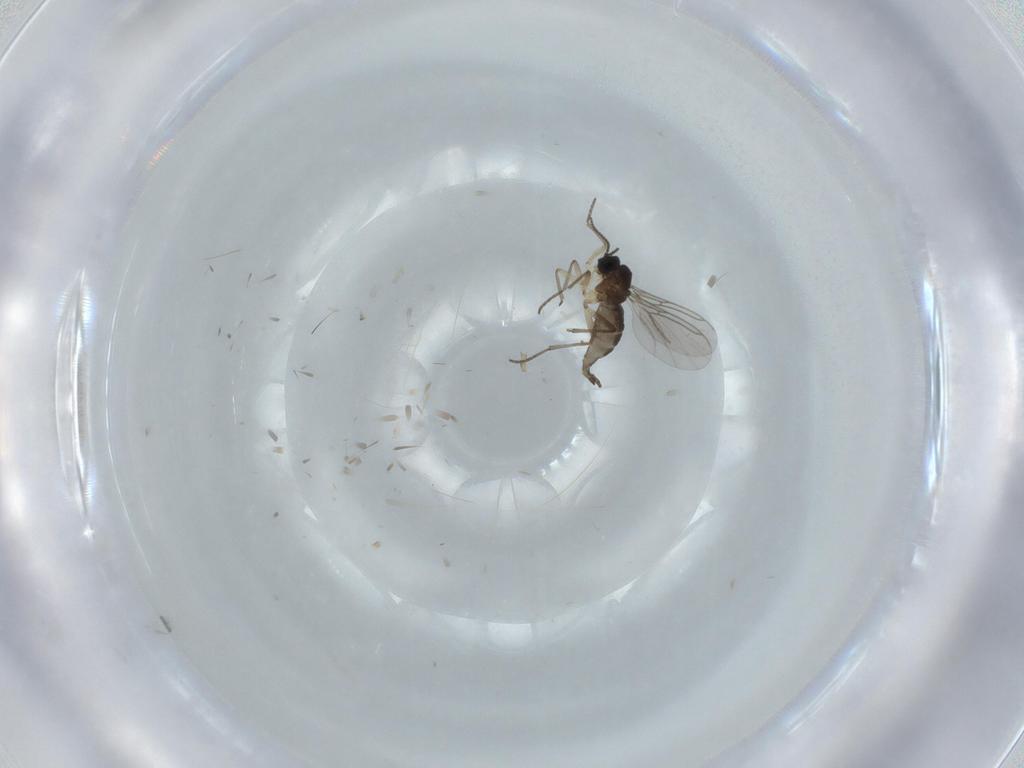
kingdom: Animalia
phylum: Arthropoda
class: Insecta
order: Diptera
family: Sciaridae
